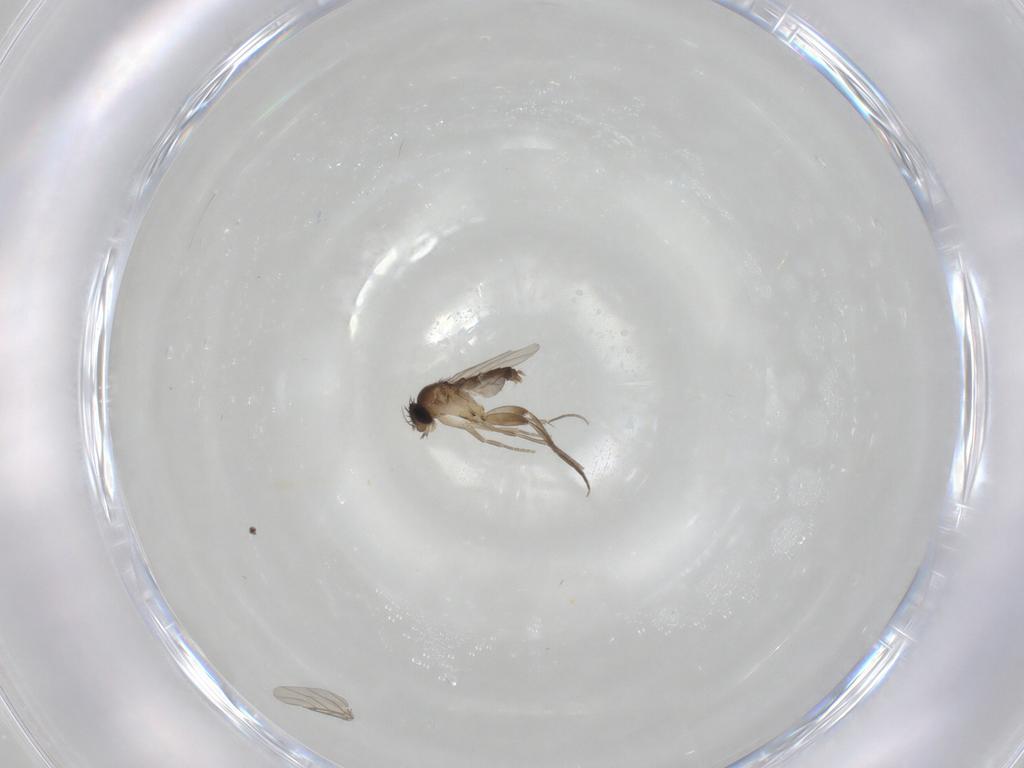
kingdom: Animalia
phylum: Arthropoda
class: Insecta
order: Diptera
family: Phoridae
